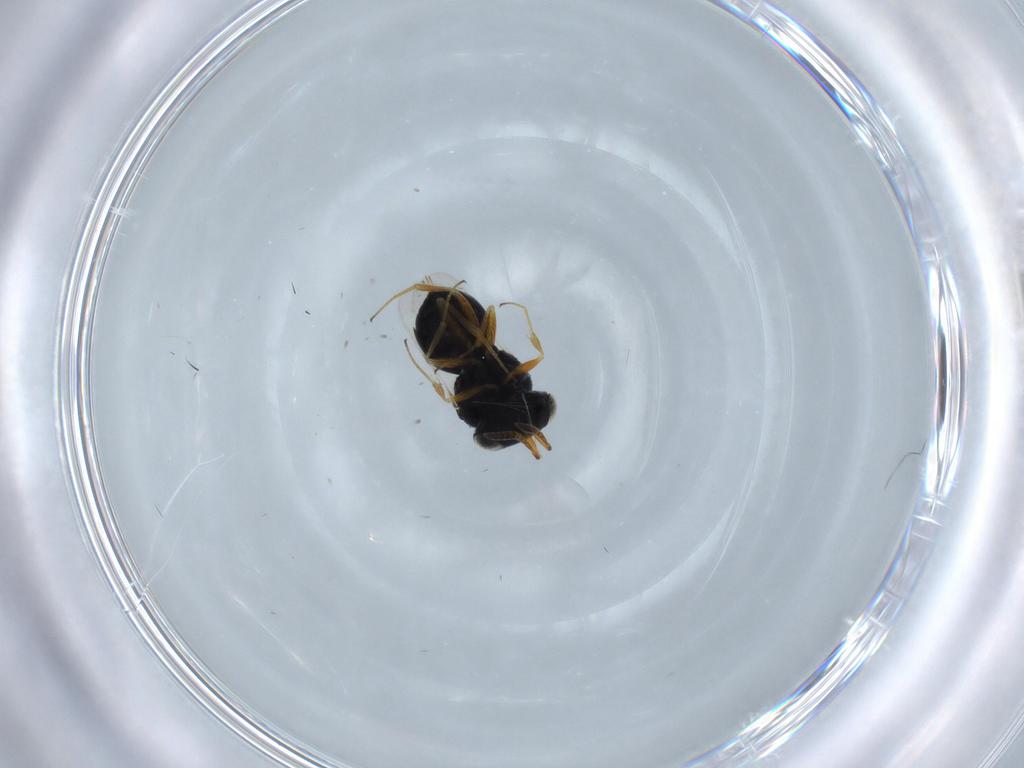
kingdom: Animalia
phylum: Arthropoda
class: Insecta
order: Hymenoptera
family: Scelionidae
